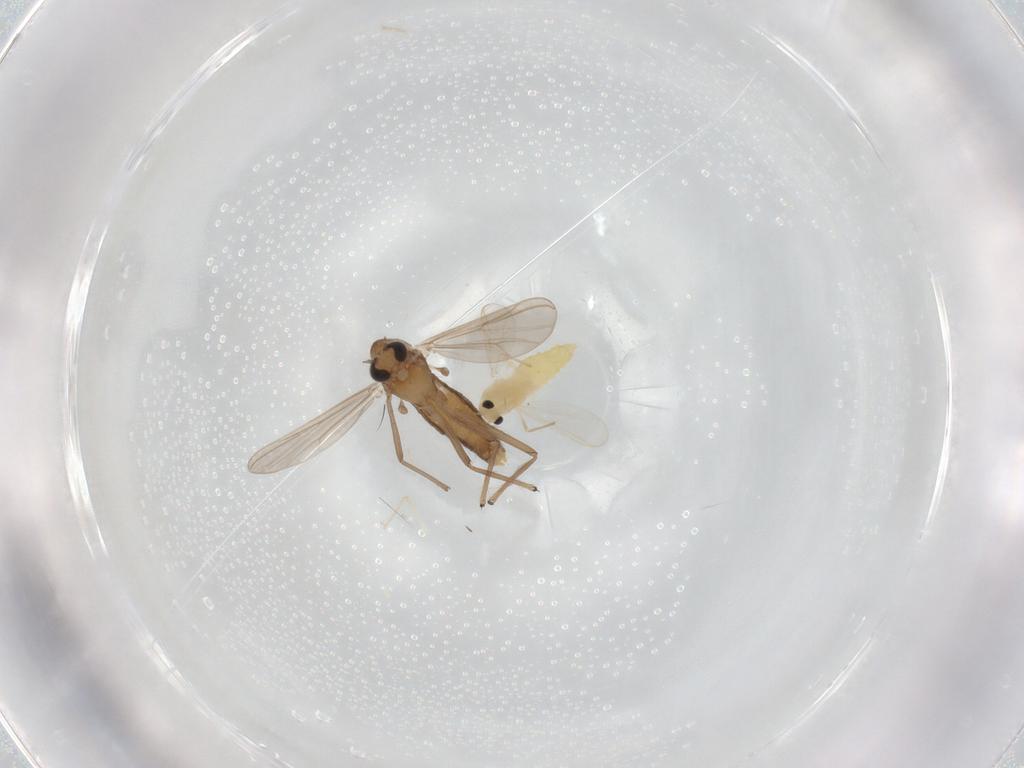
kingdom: Animalia
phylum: Arthropoda
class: Insecta
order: Diptera
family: Chironomidae
